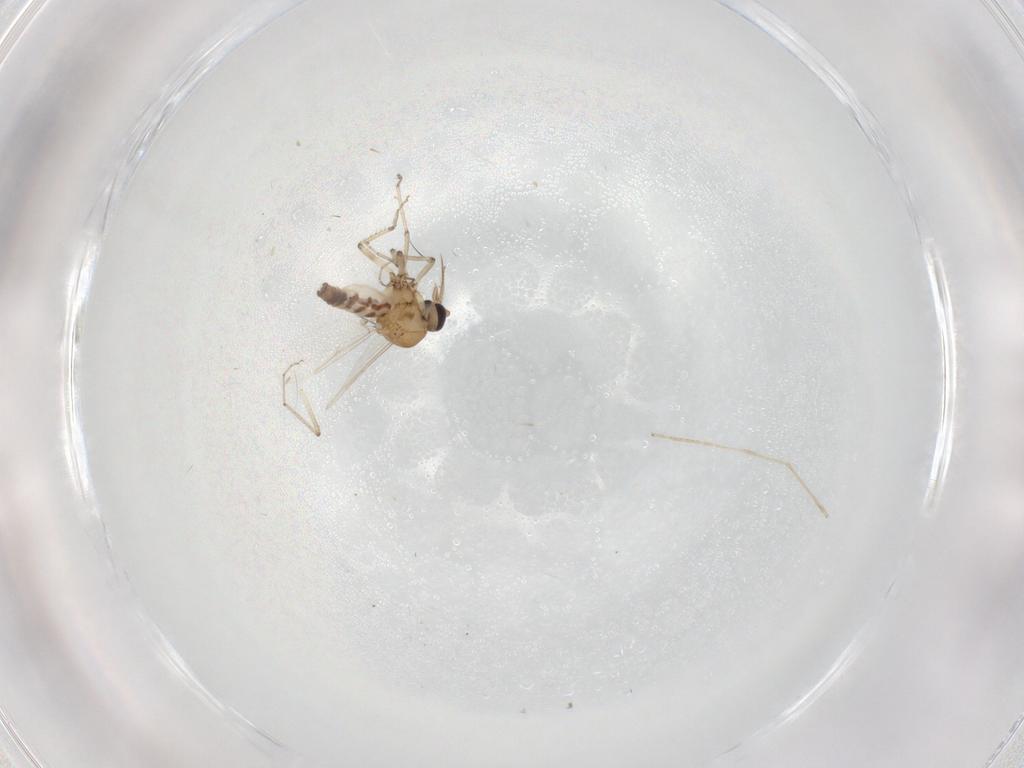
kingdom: Animalia
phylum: Arthropoda
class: Insecta
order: Diptera
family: Ceratopogonidae
